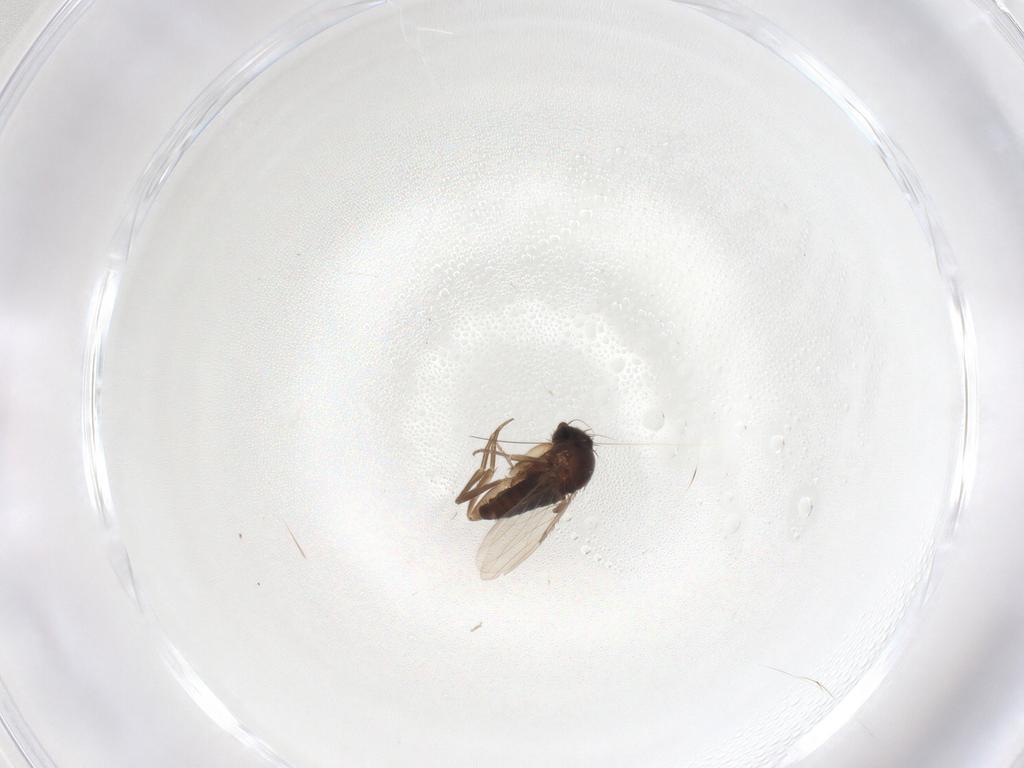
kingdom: Animalia
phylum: Arthropoda
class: Insecta
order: Diptera
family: Phoridae
